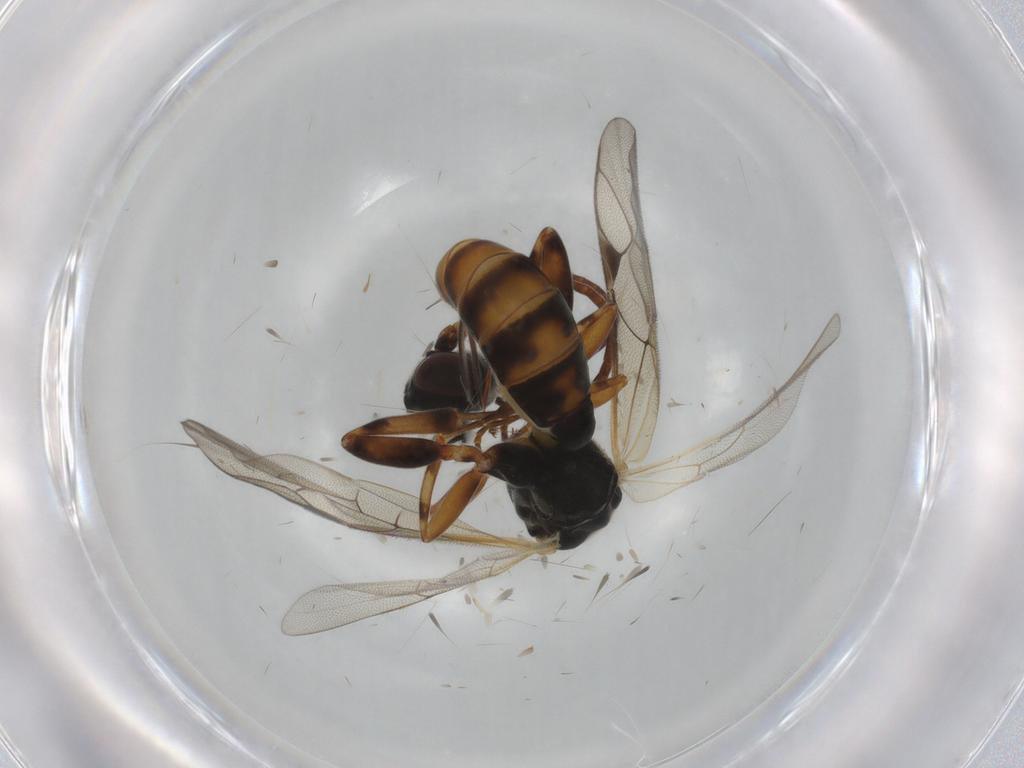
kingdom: Animalia
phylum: Arthropoda
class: Insecta
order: Hymenoptera
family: Ichneumonidae
